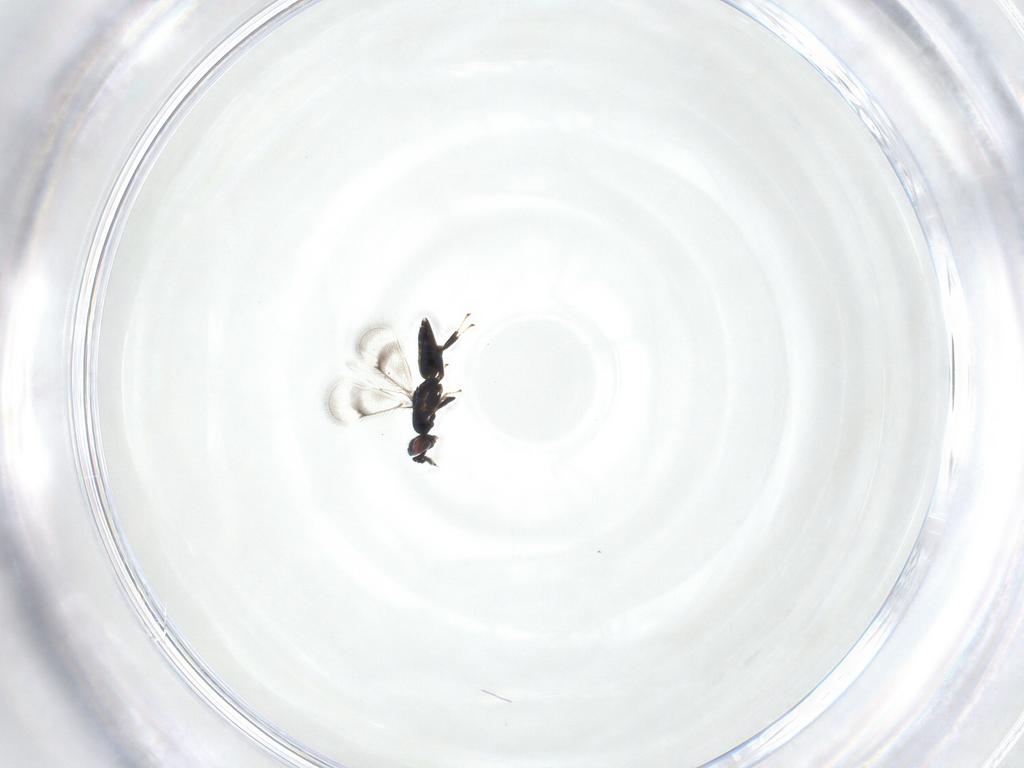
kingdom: Animalia
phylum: Arthropoda
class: Insecta
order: Hymenoptera
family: Eulophidae
